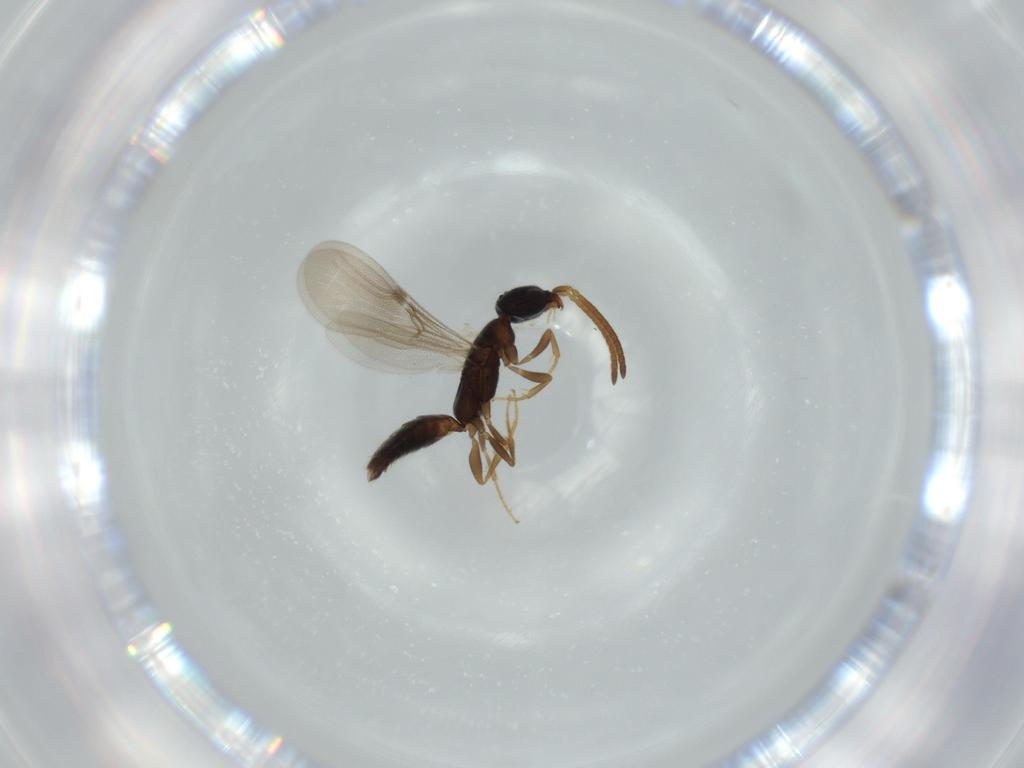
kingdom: Animalia
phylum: Arthropoda
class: Insecta
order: Hymenoptera
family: Bethylidae
